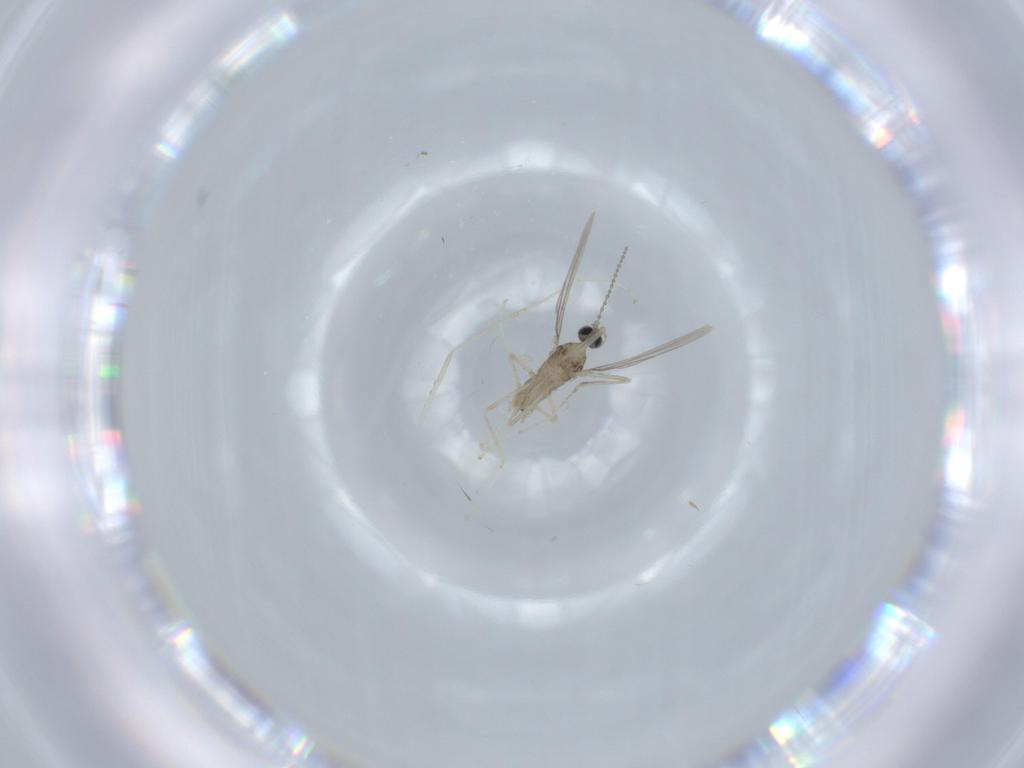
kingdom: Animalia
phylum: Arthropoda
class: Insecta
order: Diptera
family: Cecidomyiidae
